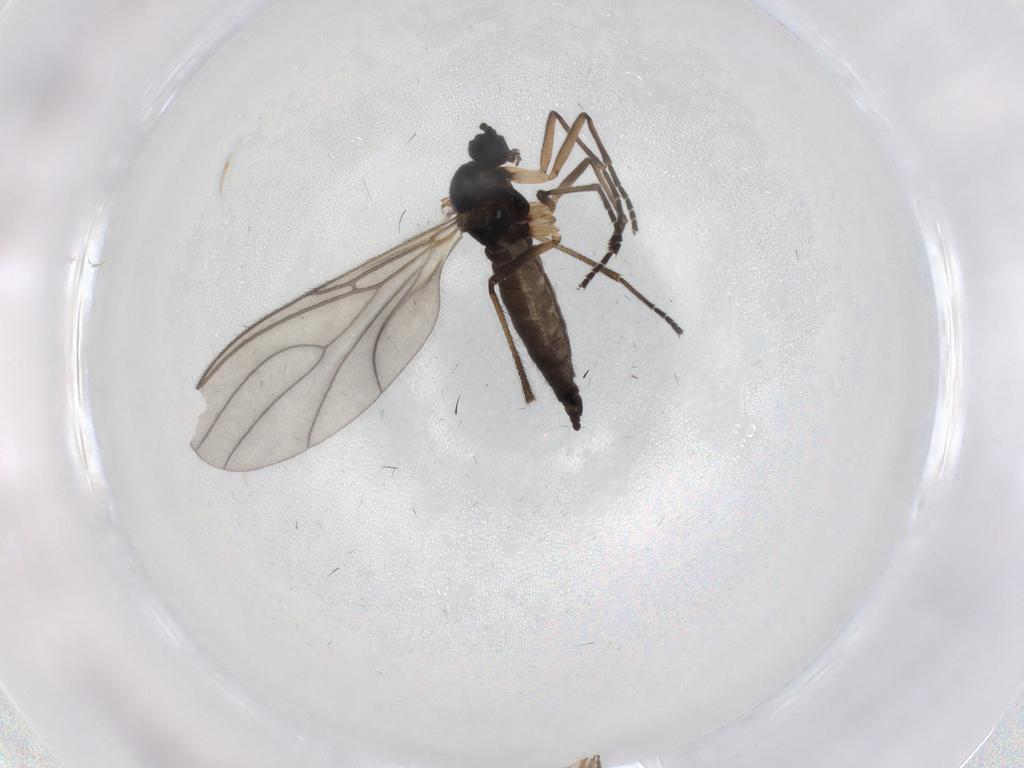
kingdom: Animalia
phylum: Arthropoda
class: Insecta
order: Diptera
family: Sciaridae
